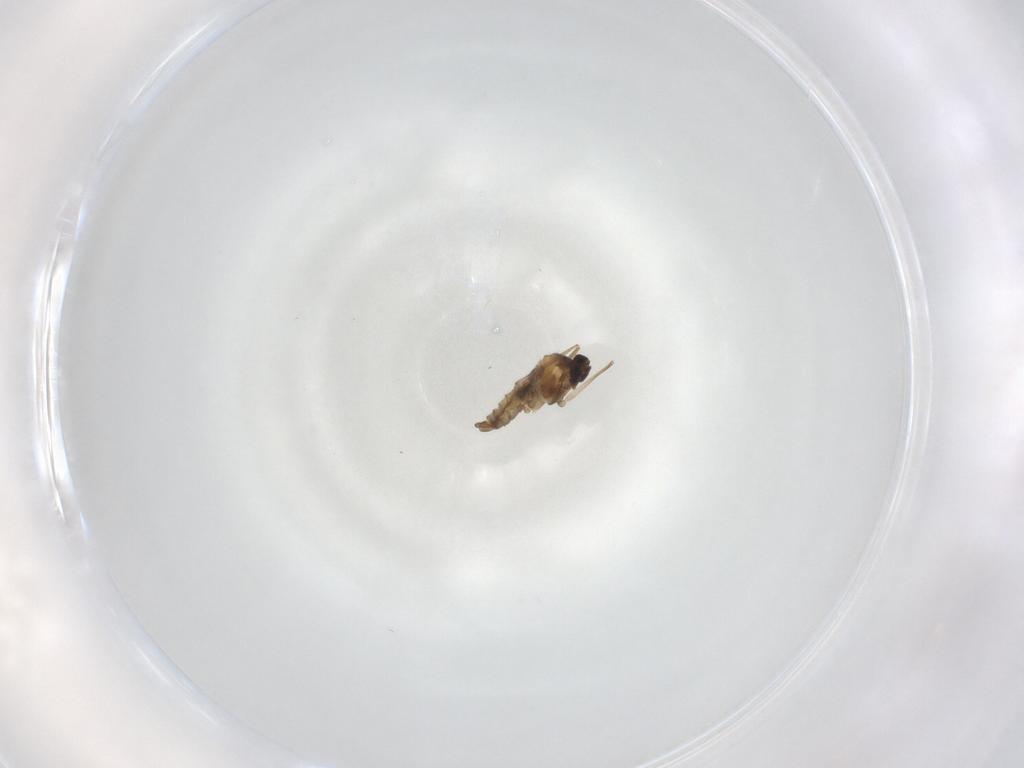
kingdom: Animalia
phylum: Arthropoda
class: Insecta
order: Diptera
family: Cecidomyiidae
